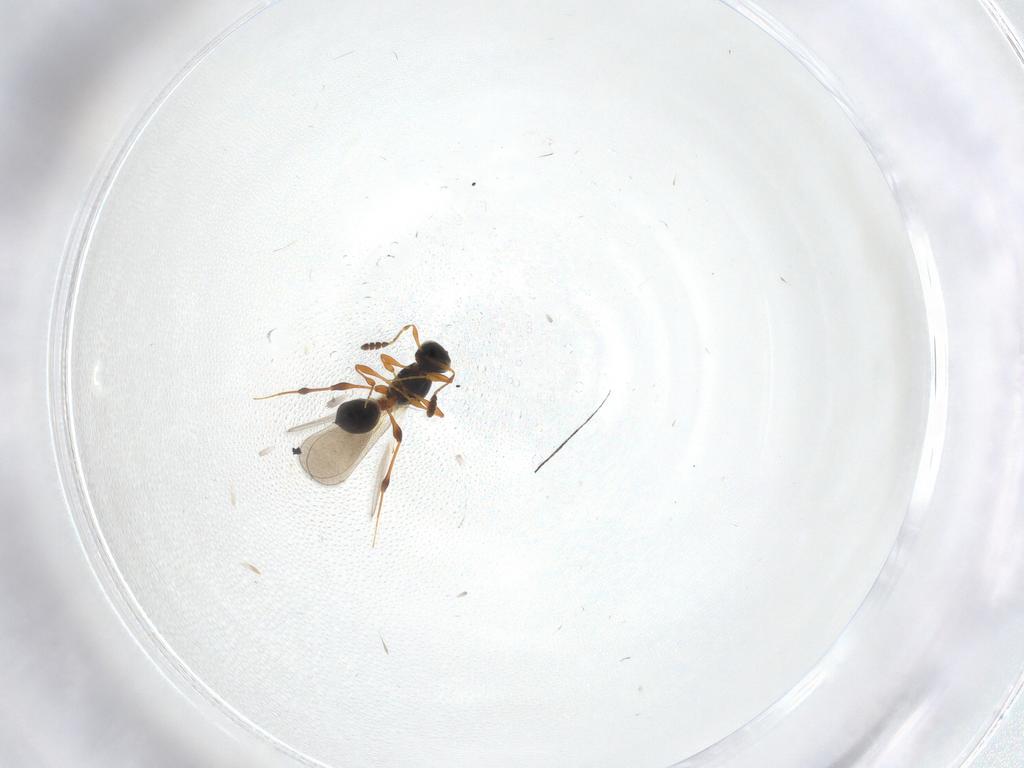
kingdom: Animalia
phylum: Arthropoda
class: Insecta
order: Hymenoptera
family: Platygastridae
